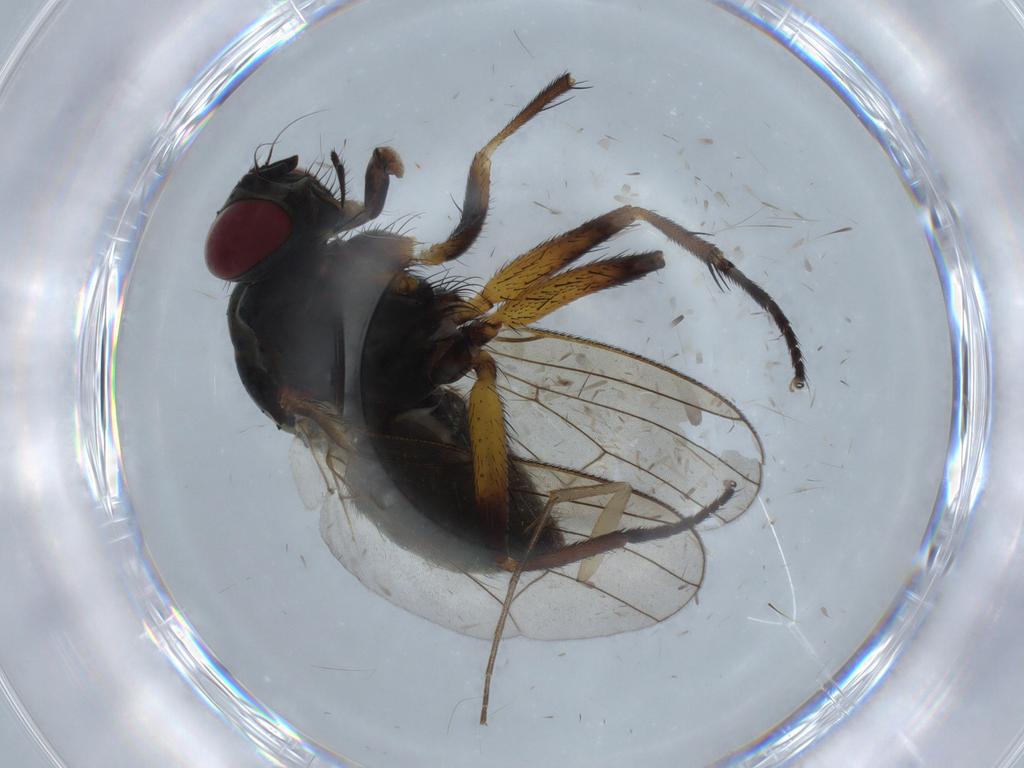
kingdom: Animalia
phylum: Arthropoda
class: Insecta
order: Diptera
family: Muscidae
